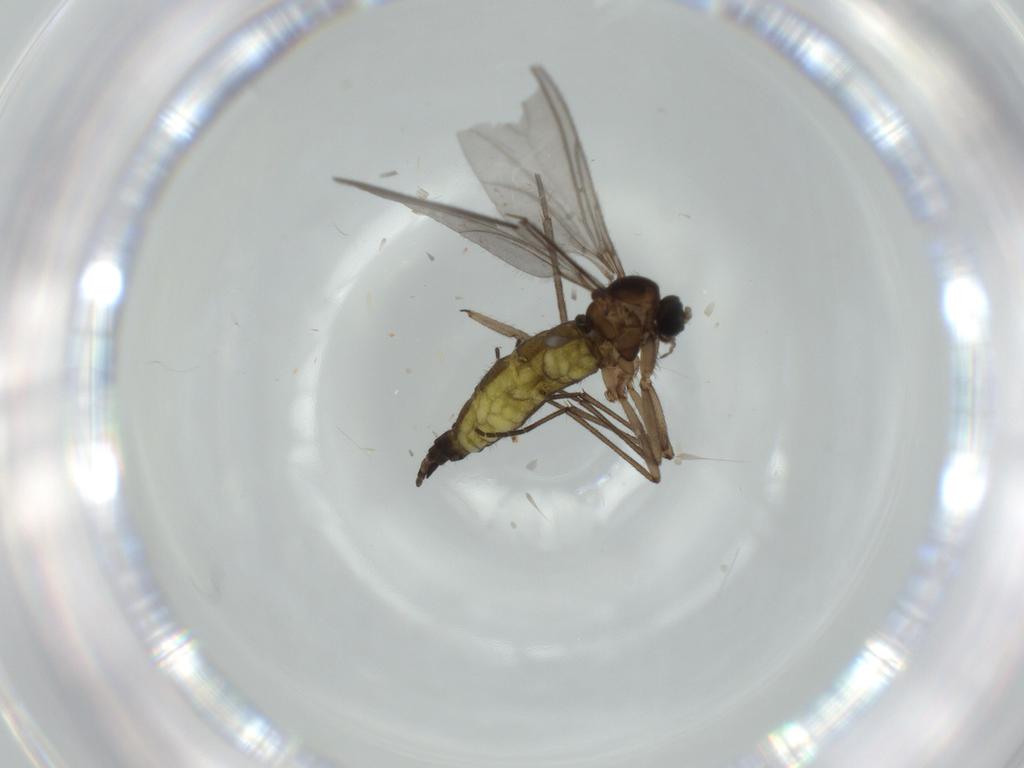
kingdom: Animalia
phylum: Arthropoda
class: Insecta
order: Diptera
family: Sciaridae
